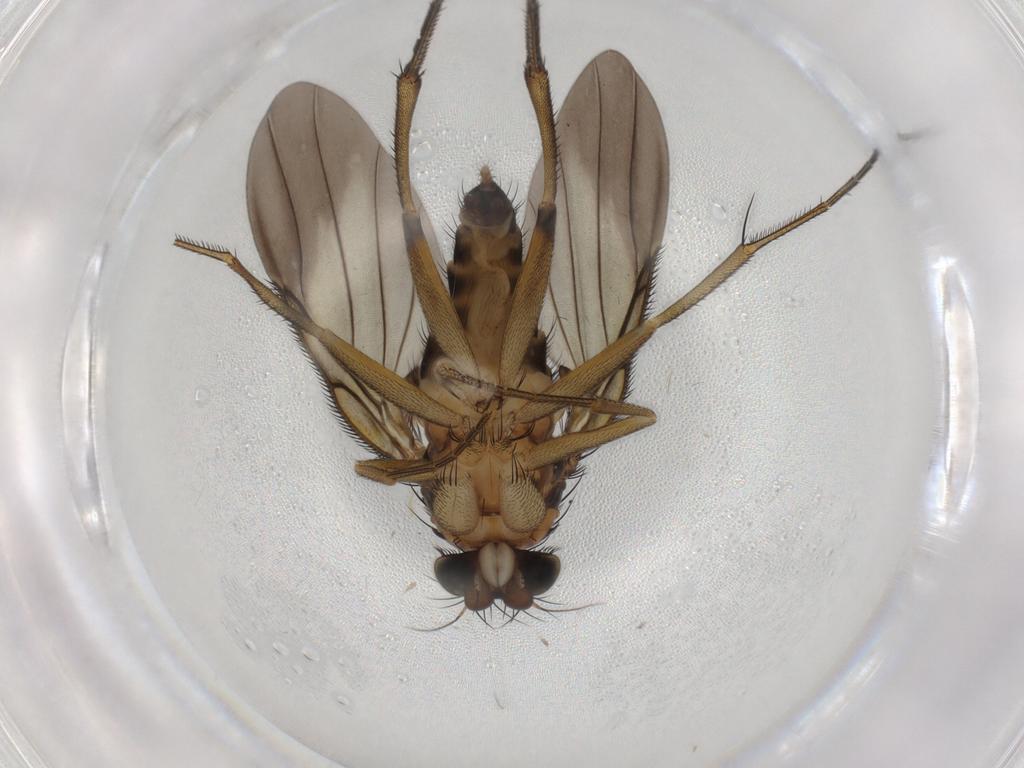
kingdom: Animalia
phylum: Arthropoda
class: Insecta
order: Diptera
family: Phoridae
